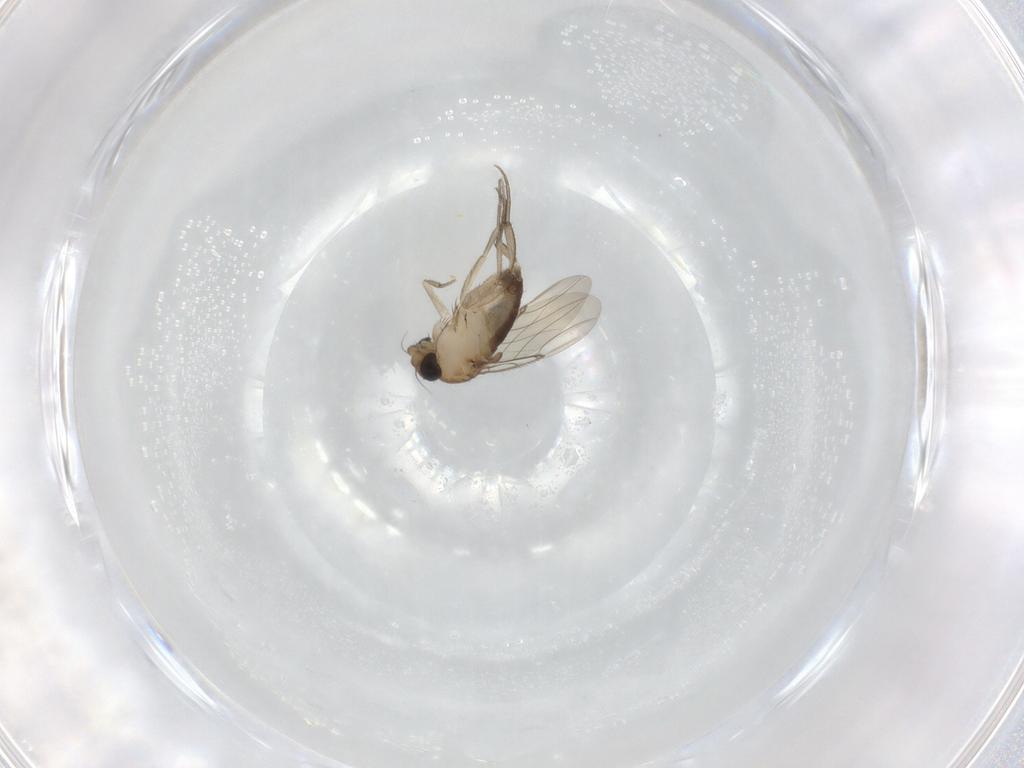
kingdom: Animalia
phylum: Arthropoda
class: Insecta
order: Diptera
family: Phoridae
